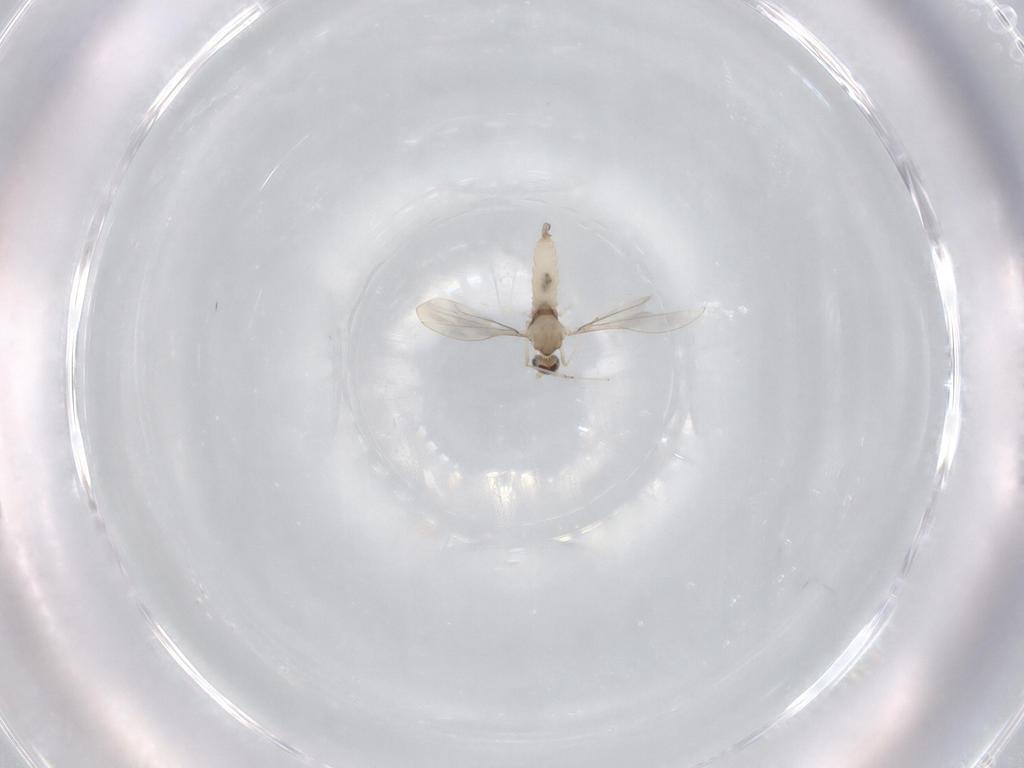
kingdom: Animalia
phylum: Arthropoda
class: Insecta
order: Diptera
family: Cecidomyiidae
